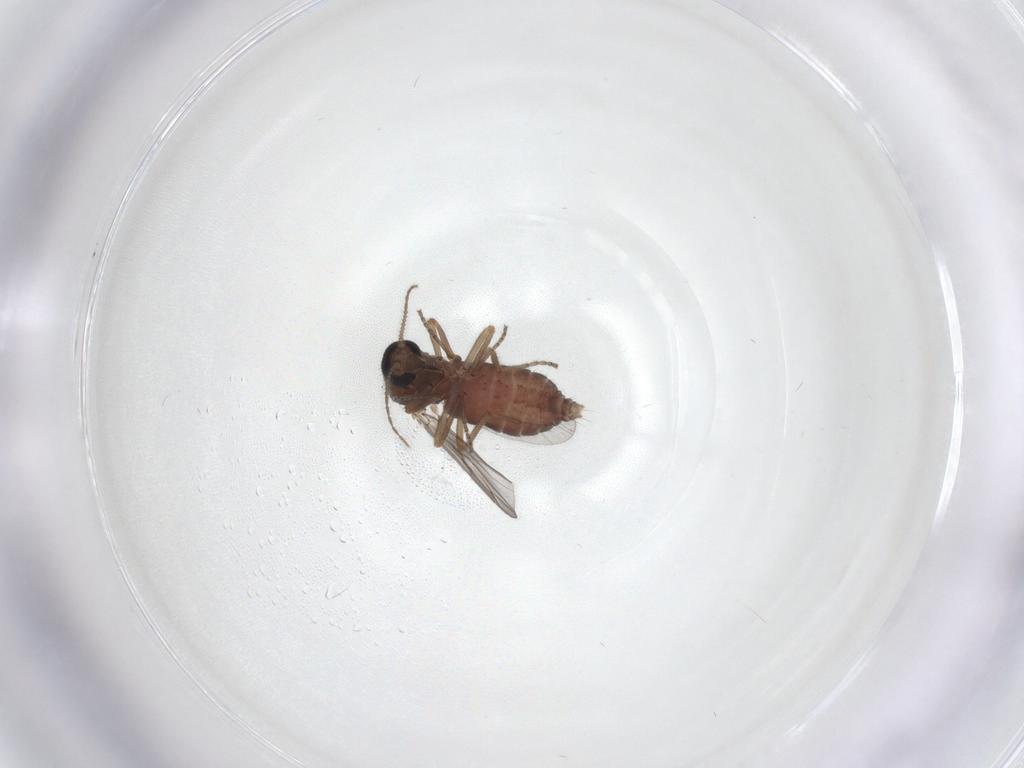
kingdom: Animalia
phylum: Arthropoda
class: Insecta
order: Diptera
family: Ceratopogonidae
